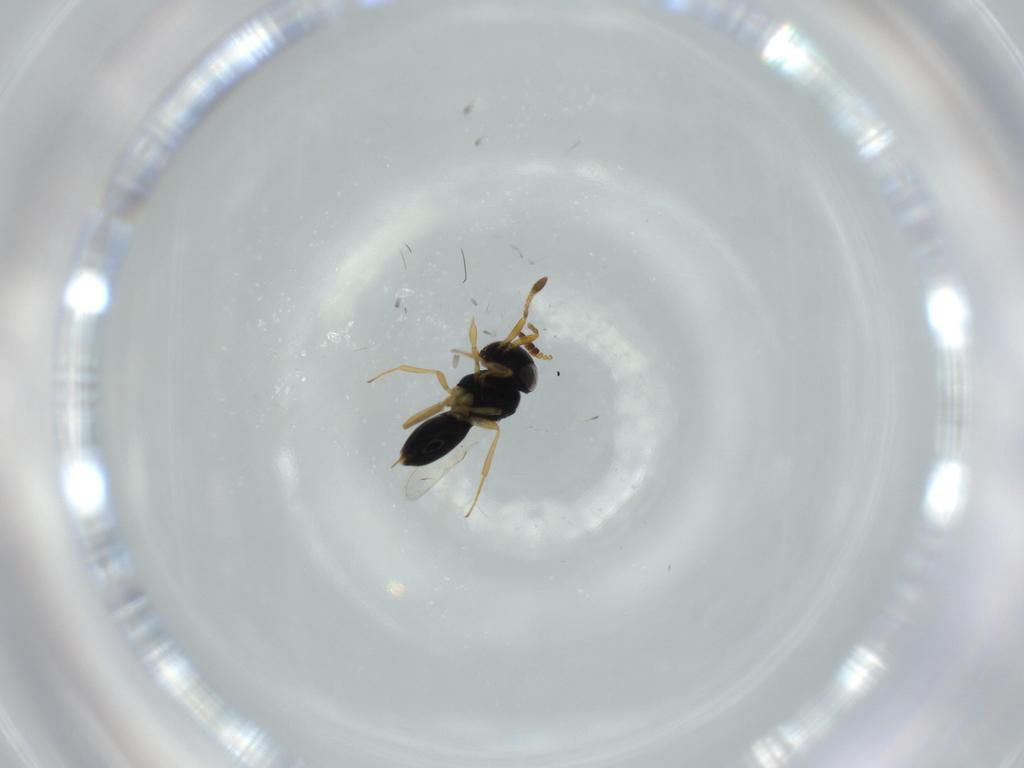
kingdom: Animalia
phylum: Arthropoda
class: Insecta
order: Hymenoptera
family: Scelionidae
